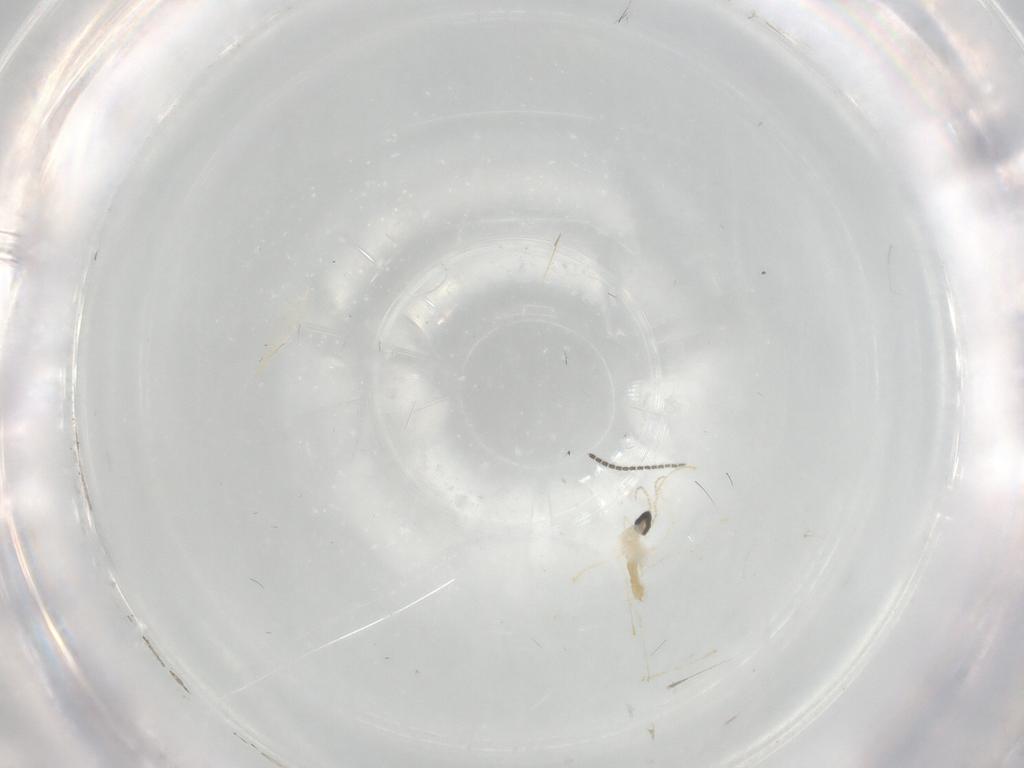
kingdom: Animalia
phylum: Arthropoda
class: Insecta
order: Diptera
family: Cecidomyiidae
